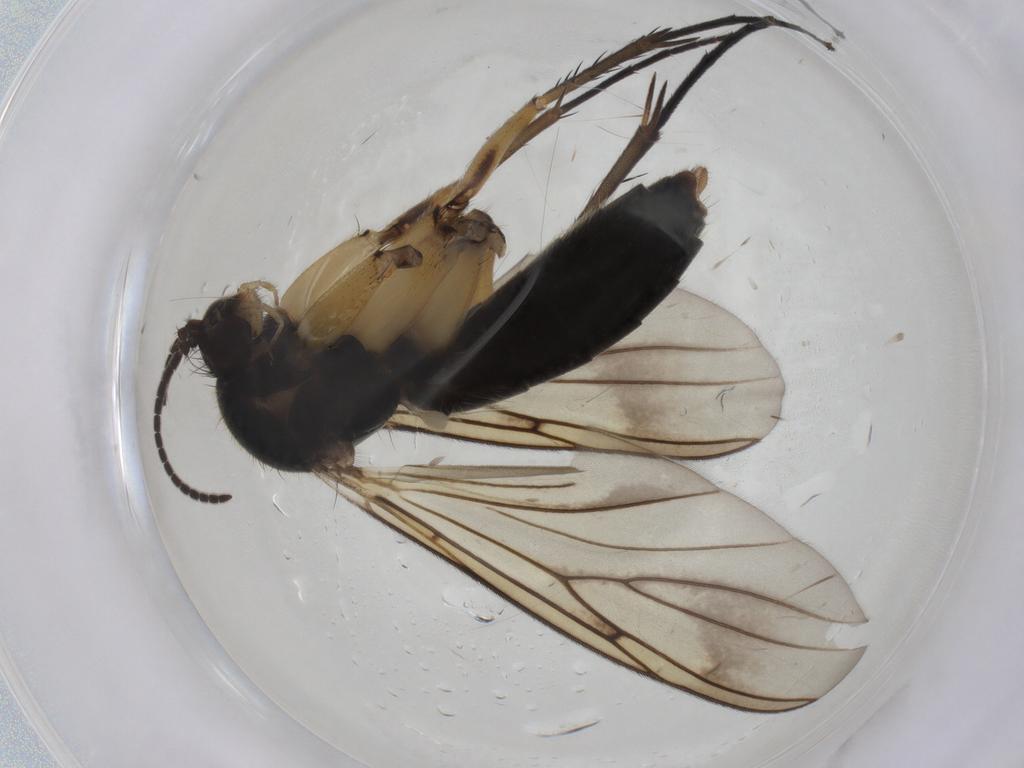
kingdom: Animalia
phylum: Arthropoda
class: Insecta
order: Diptera
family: Mycetophilidae
